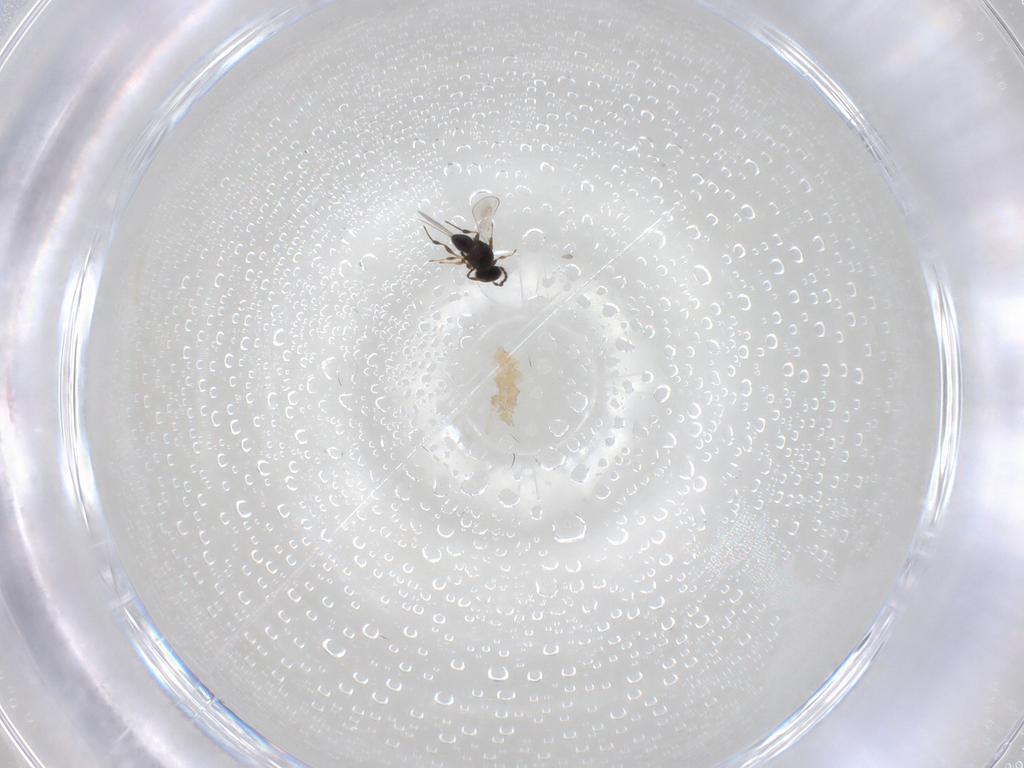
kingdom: Animalia
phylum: Arthropoda
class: Insecta
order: Hymenoptera
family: Platygastridae
